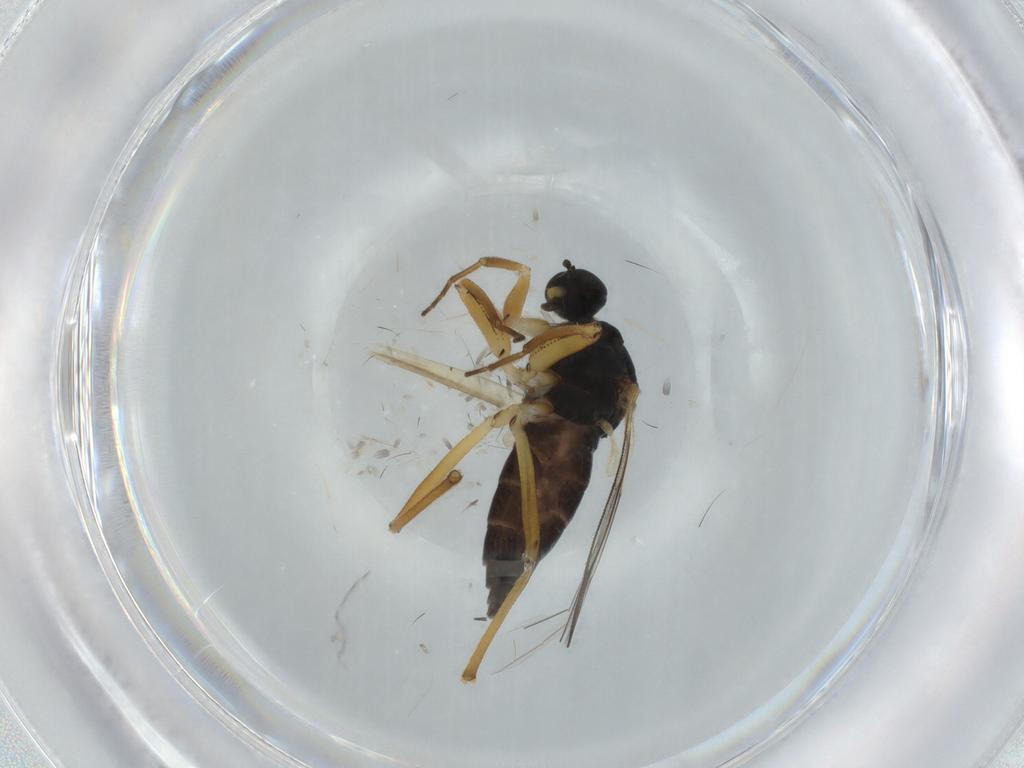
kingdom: Animalia
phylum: Arthropoda
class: Insecta
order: Diptera
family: Hybotidae
